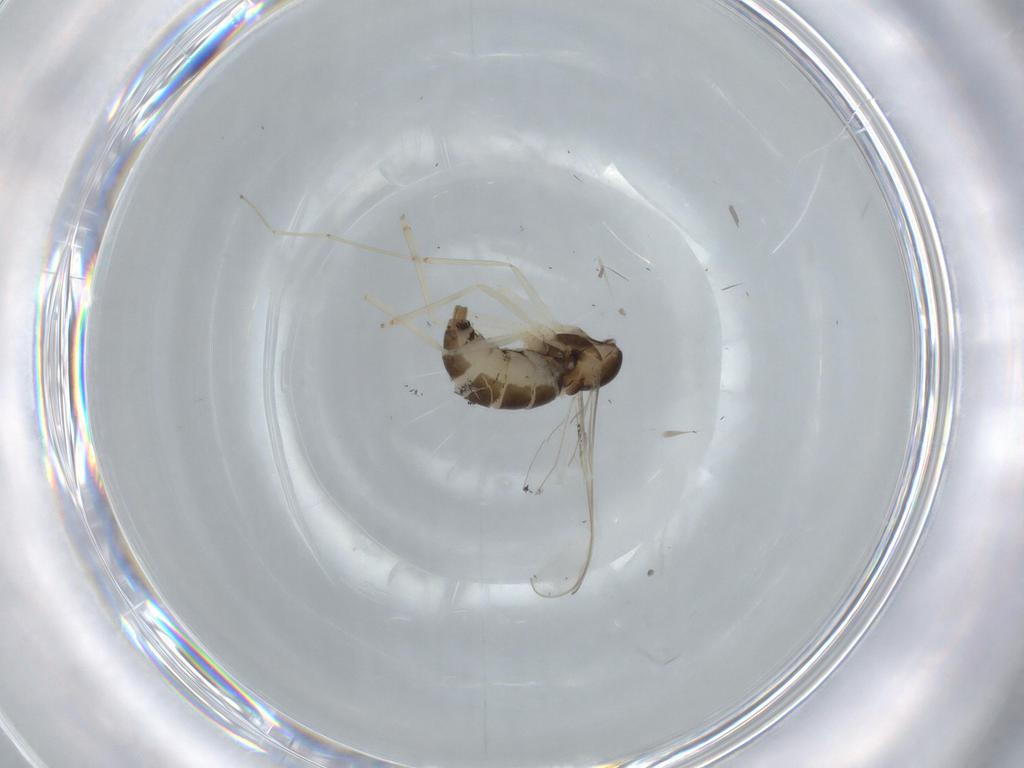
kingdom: Animalia
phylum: Arthropoda
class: Insecta
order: Diptera
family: Cecidomyiidae
